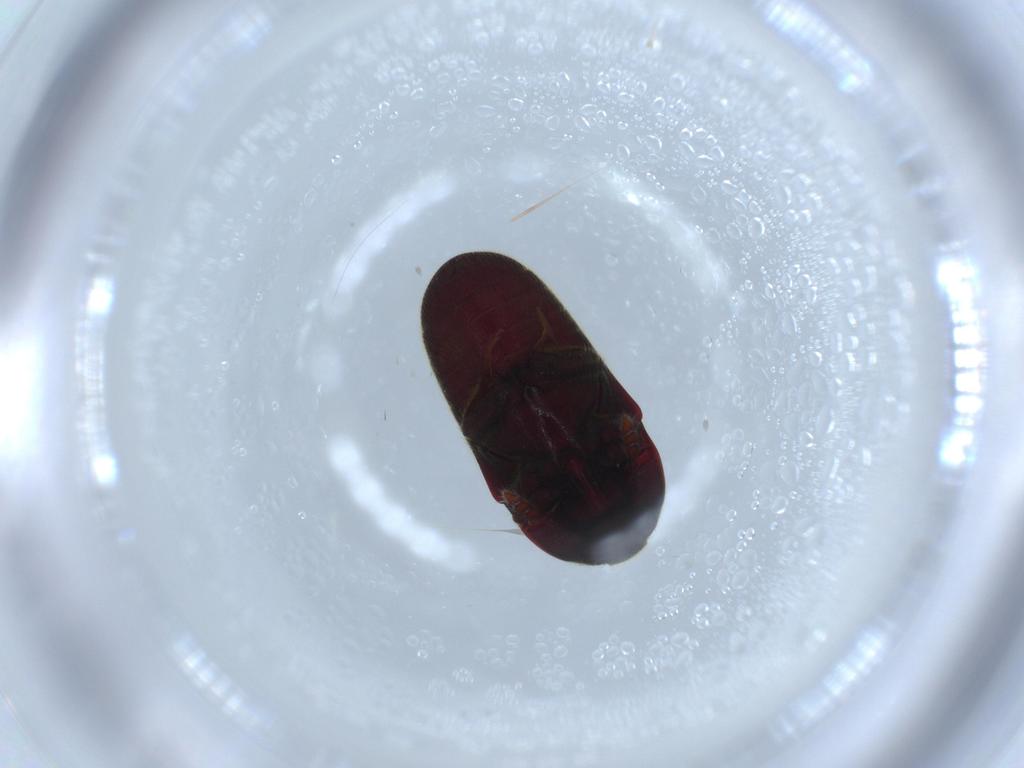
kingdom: Animalia
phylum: Arthropoda
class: Insecta
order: Coleoptera
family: Throscidae
